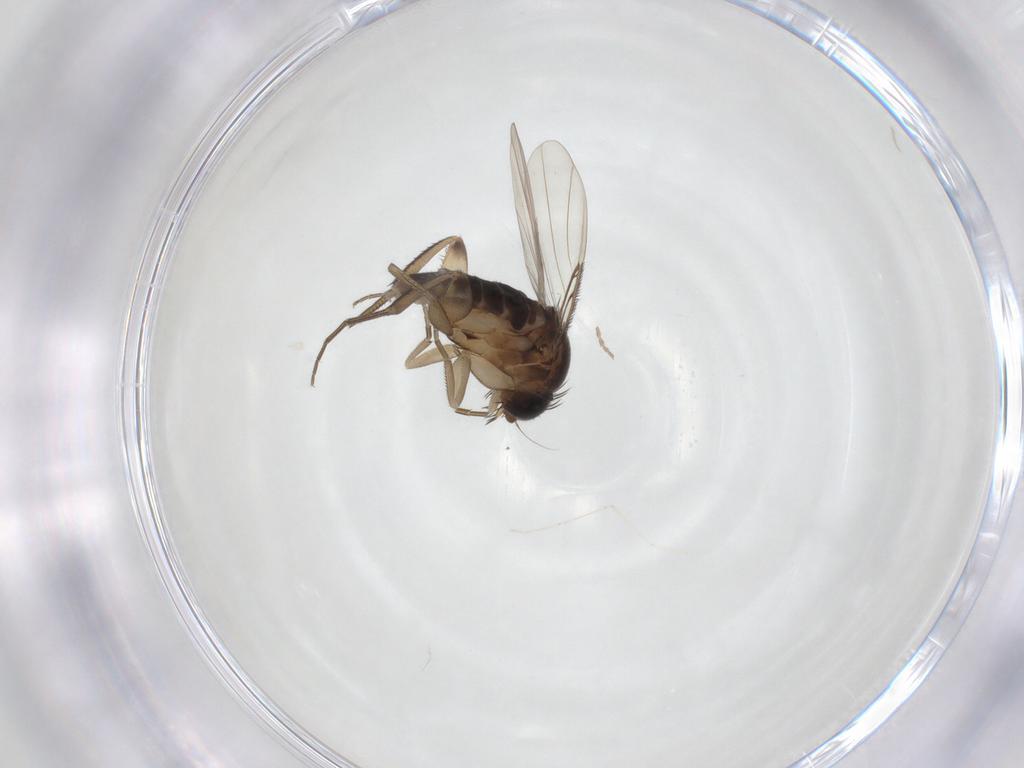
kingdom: Animalia
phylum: Arthropoda
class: Insecta
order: Diptera
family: Phoridae
